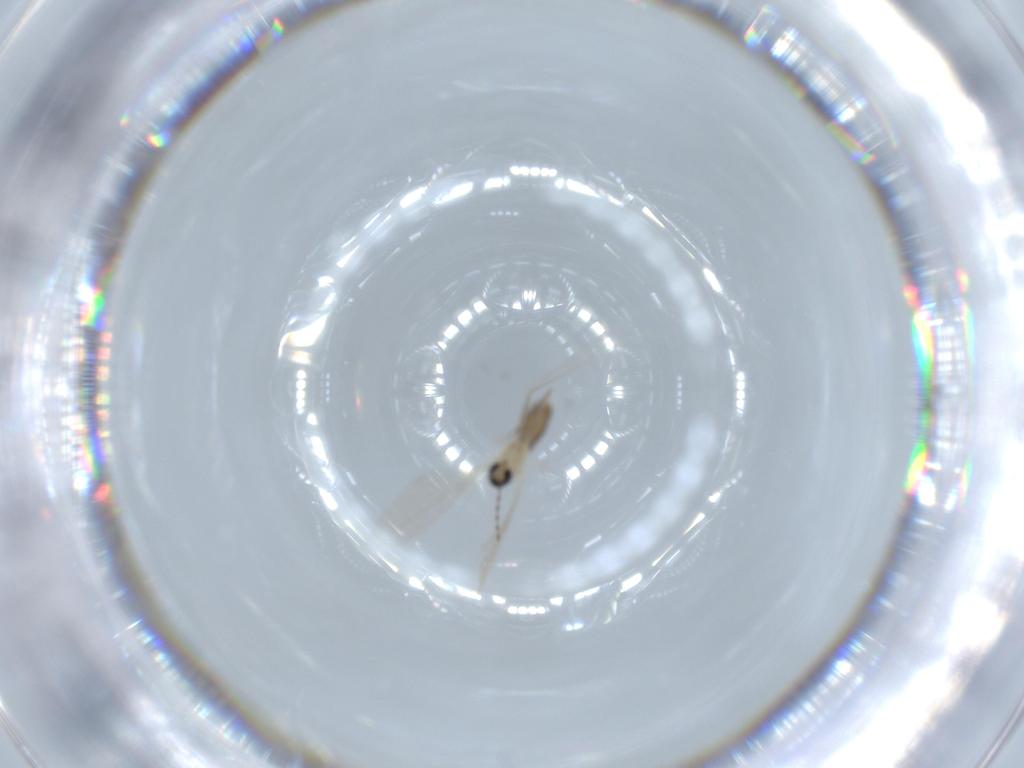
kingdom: Animalia
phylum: Arthropoda
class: Insecta
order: Diptera
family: Cecidomyiidae
